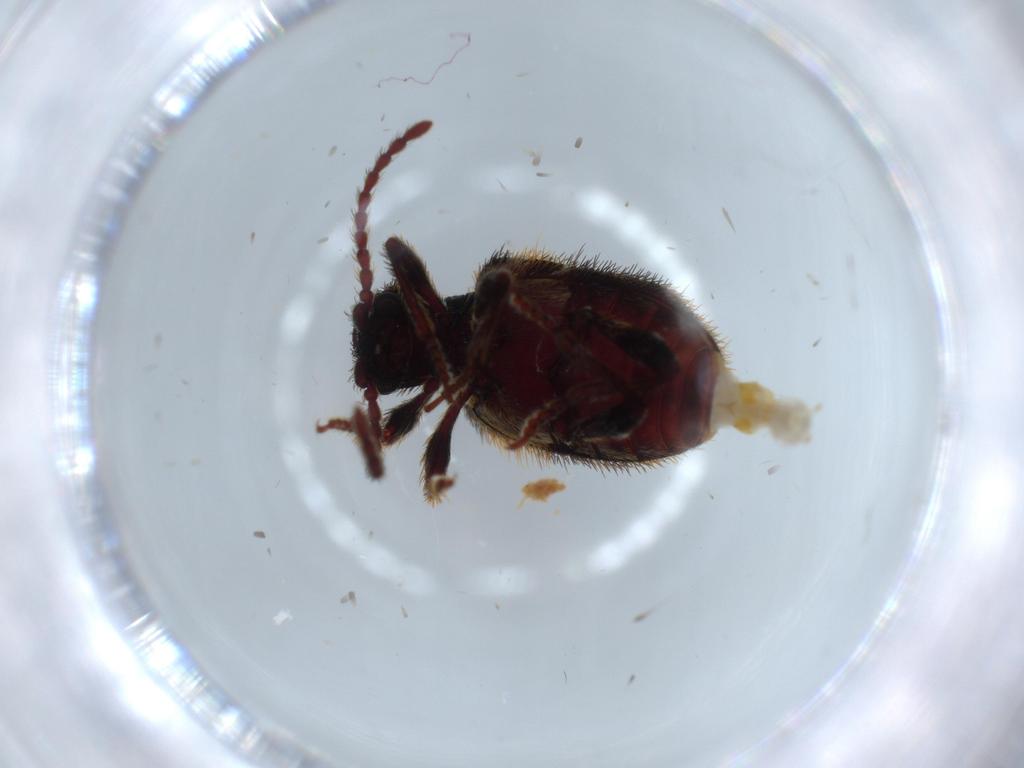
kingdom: Animalia
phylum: Arthropoda
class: Insecta
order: Coleoptera
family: Ptinidae
